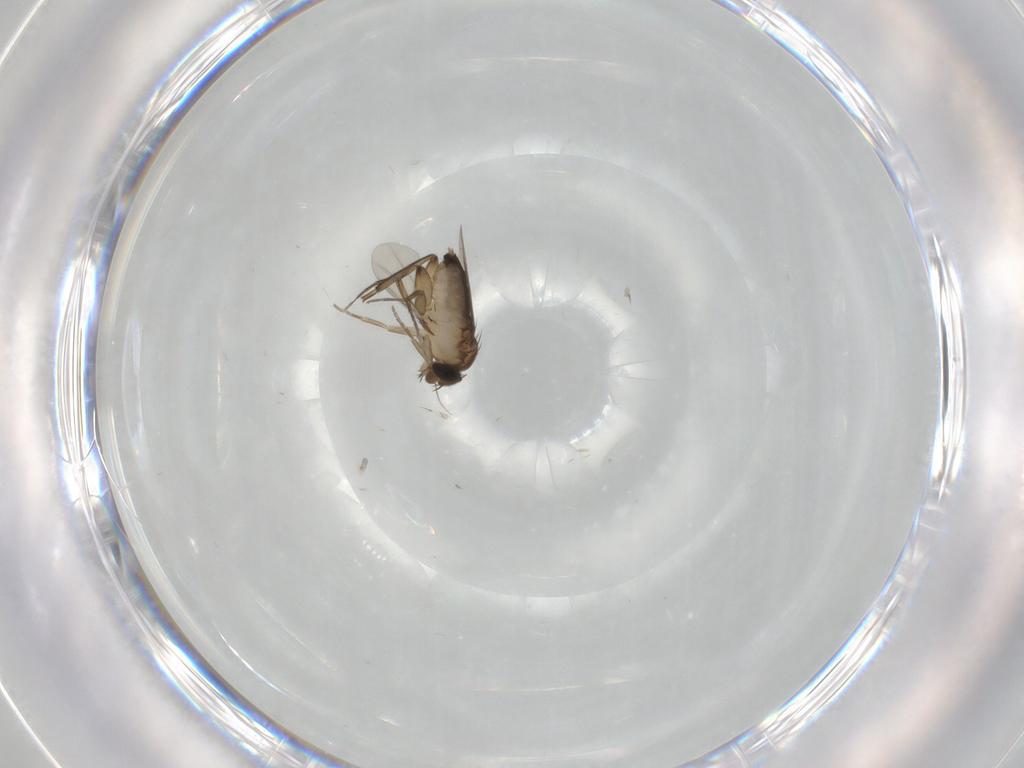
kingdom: Animalia
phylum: Arthropoda
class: Insecta
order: Diptera
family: Phoridae
